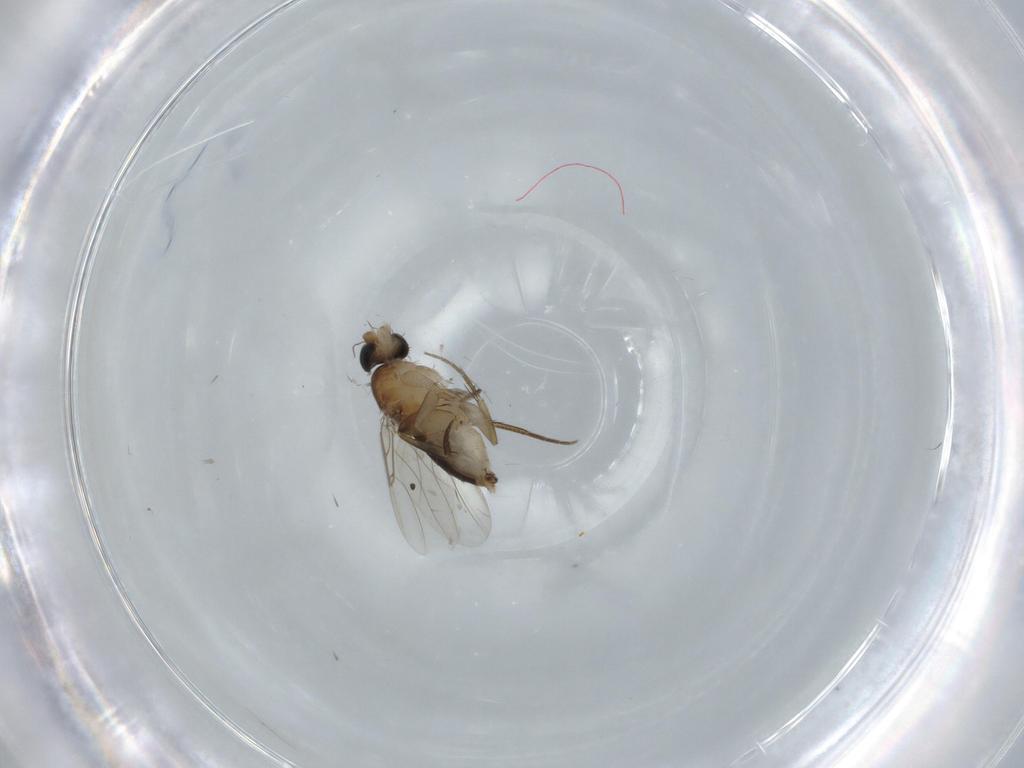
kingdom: Animalia
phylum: Arthropoda
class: Insecta
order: Diptera
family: Phoridae
